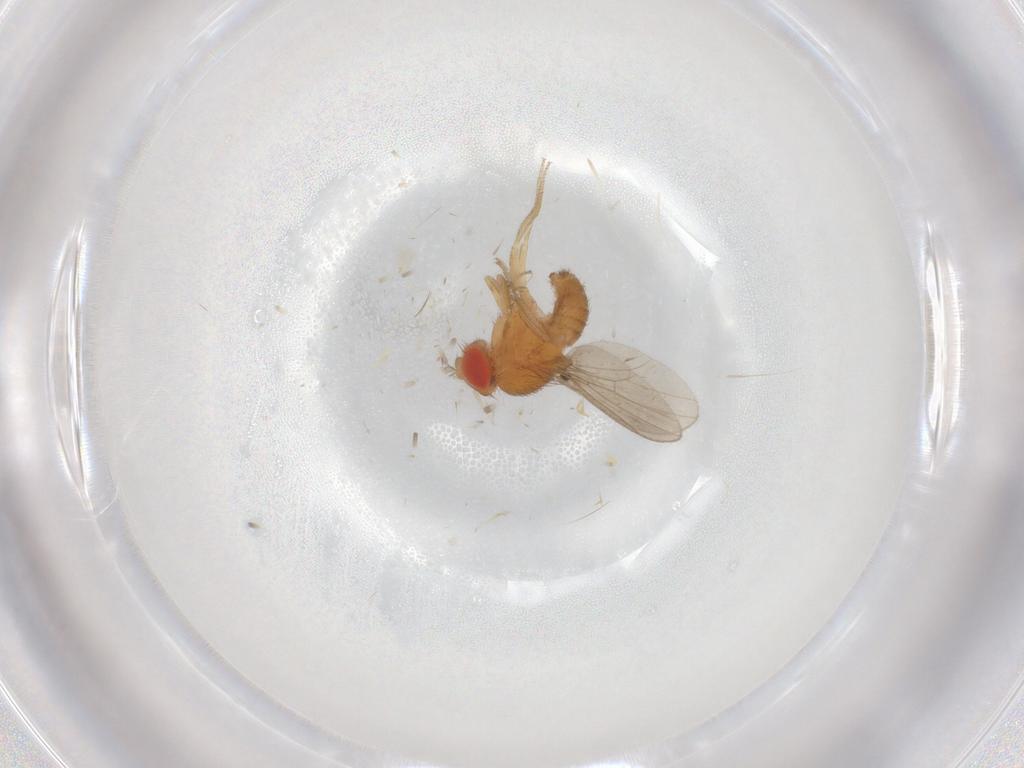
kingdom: Animalia
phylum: Arthropoda
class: Insecta
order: Diptera
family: Drosophilidae
